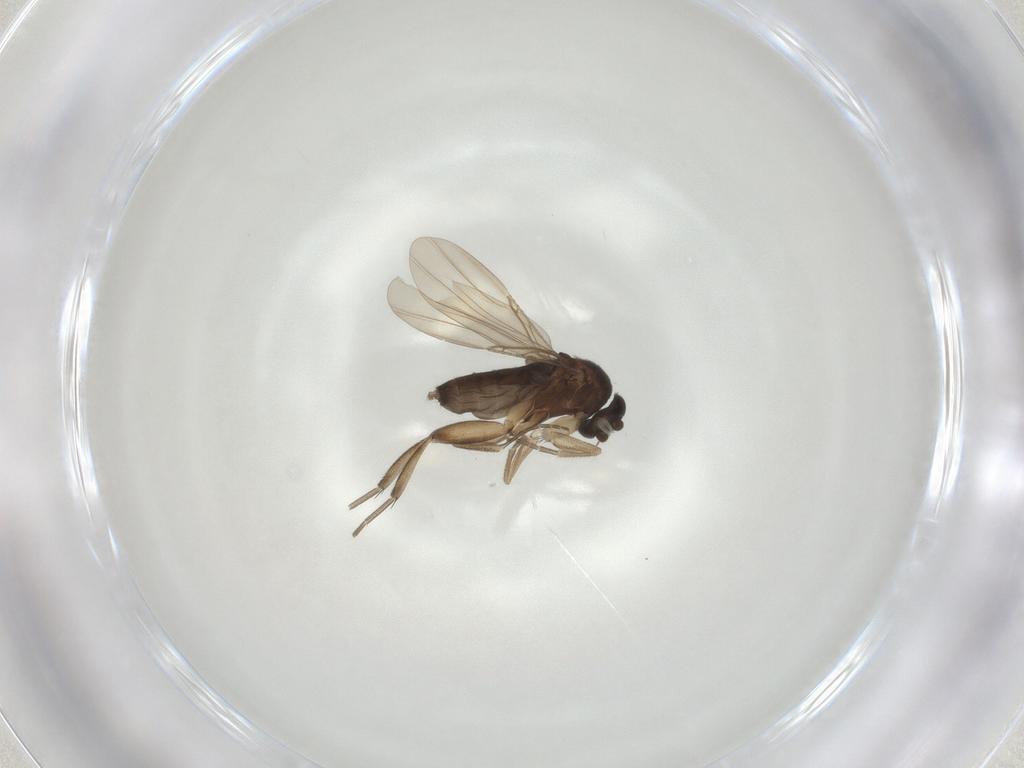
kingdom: Animalia
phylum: Arthropoda
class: Insecta
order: Diptera
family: Phoridae
